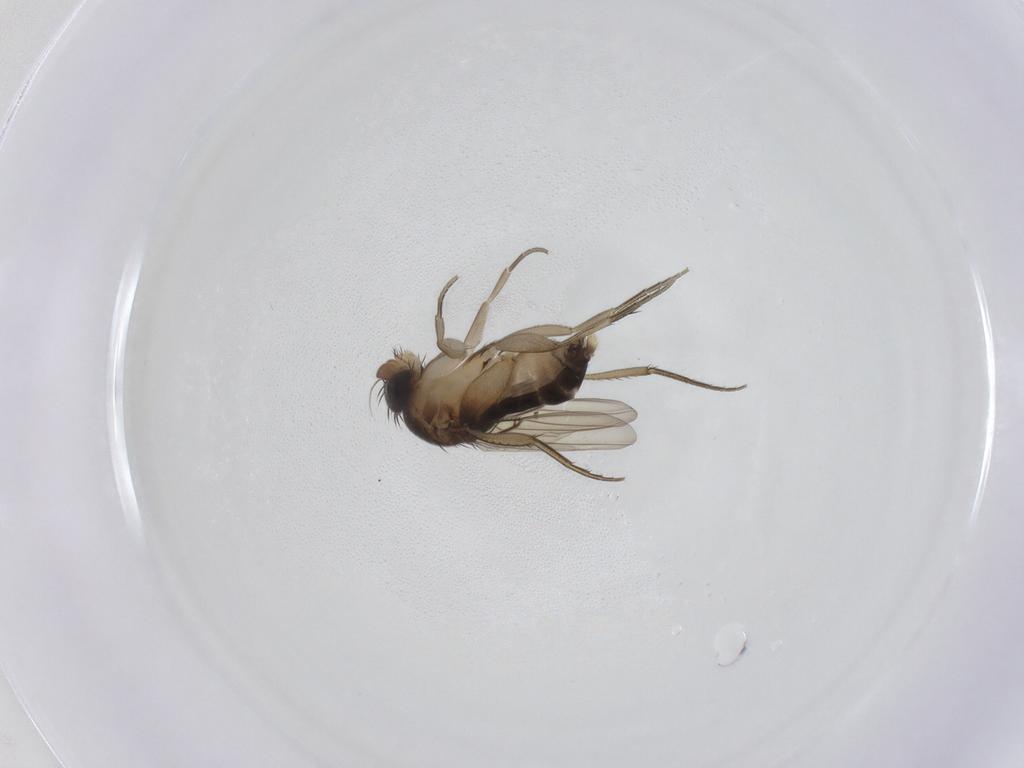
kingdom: Animalia
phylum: Arthropoda
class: Insecta
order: Diptera
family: Phoridae
